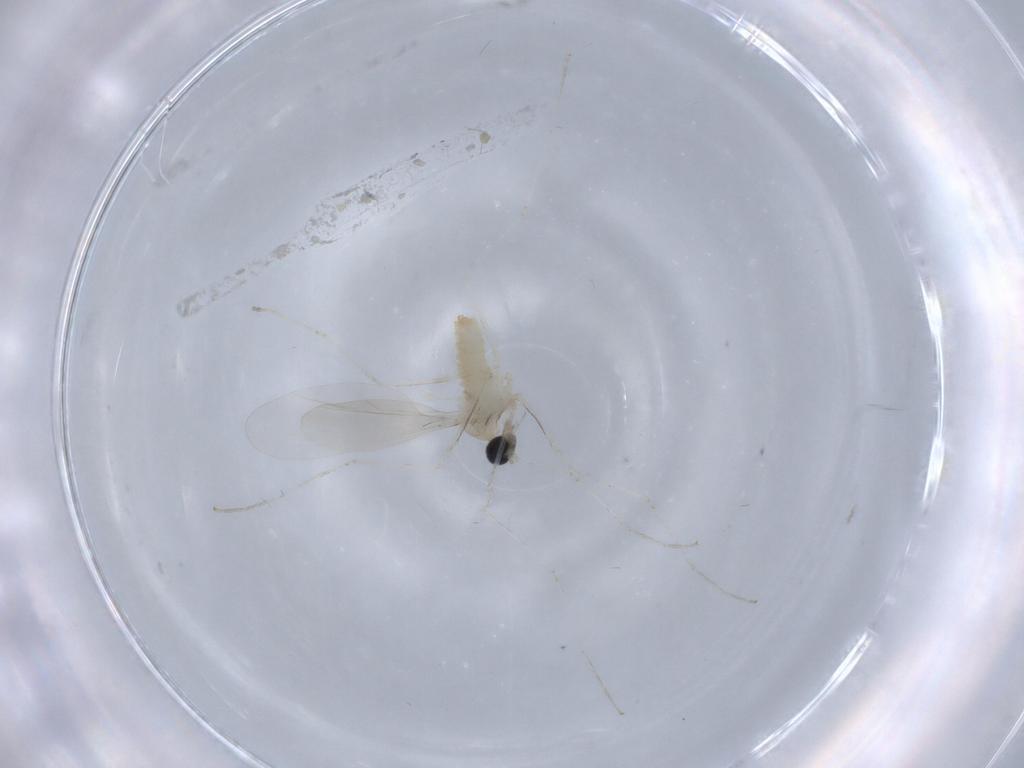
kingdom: Animalia
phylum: Arthropoda
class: Insecta
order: Diptera
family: Cecidomyiidae
